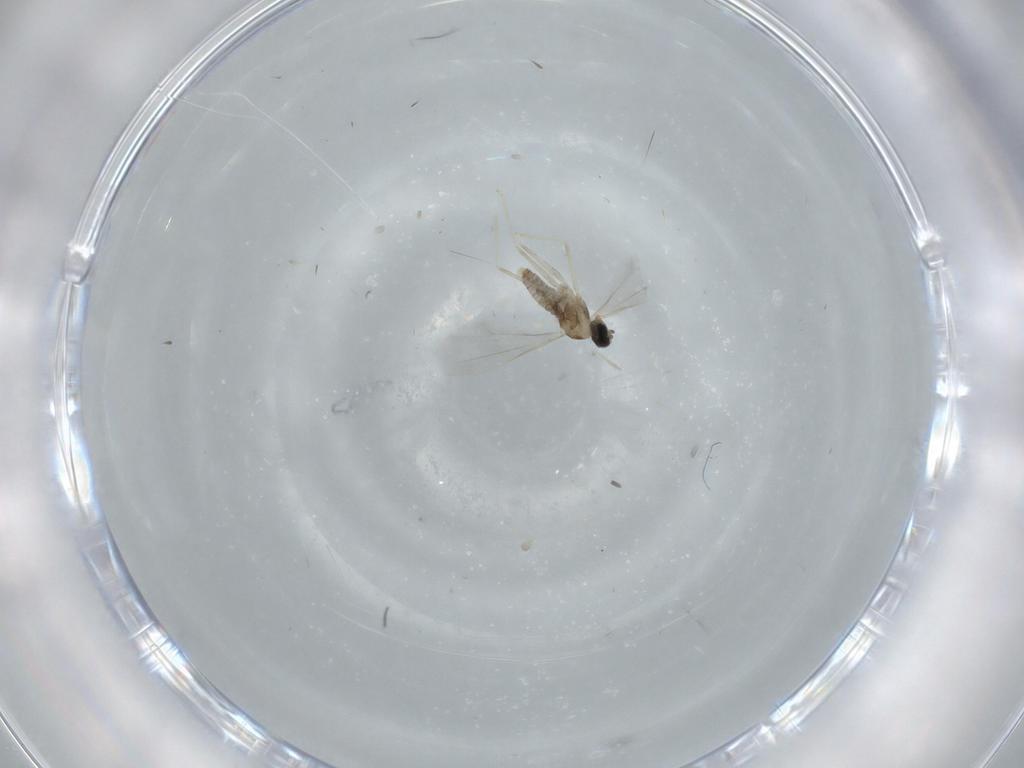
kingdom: Animalia
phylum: Arthropoda
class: Insecta
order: Diptera
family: Cecidomyiidae
